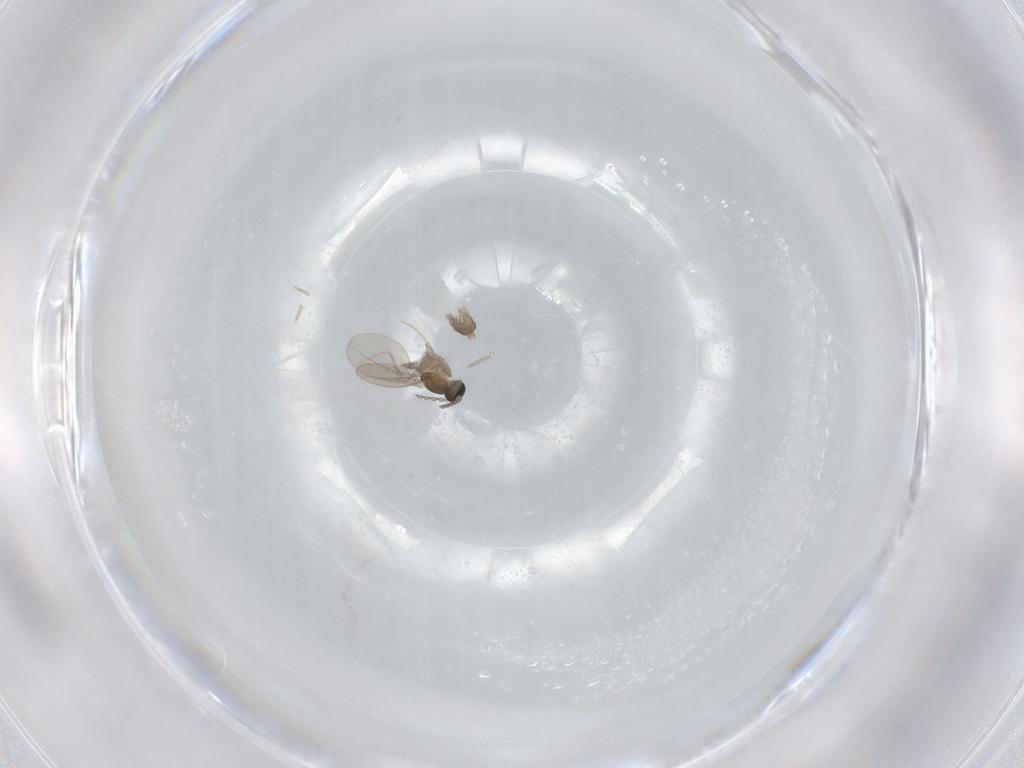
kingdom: Animalia
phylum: Arthropoda
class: Insecta
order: Diptera
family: Cecidomyiidae
